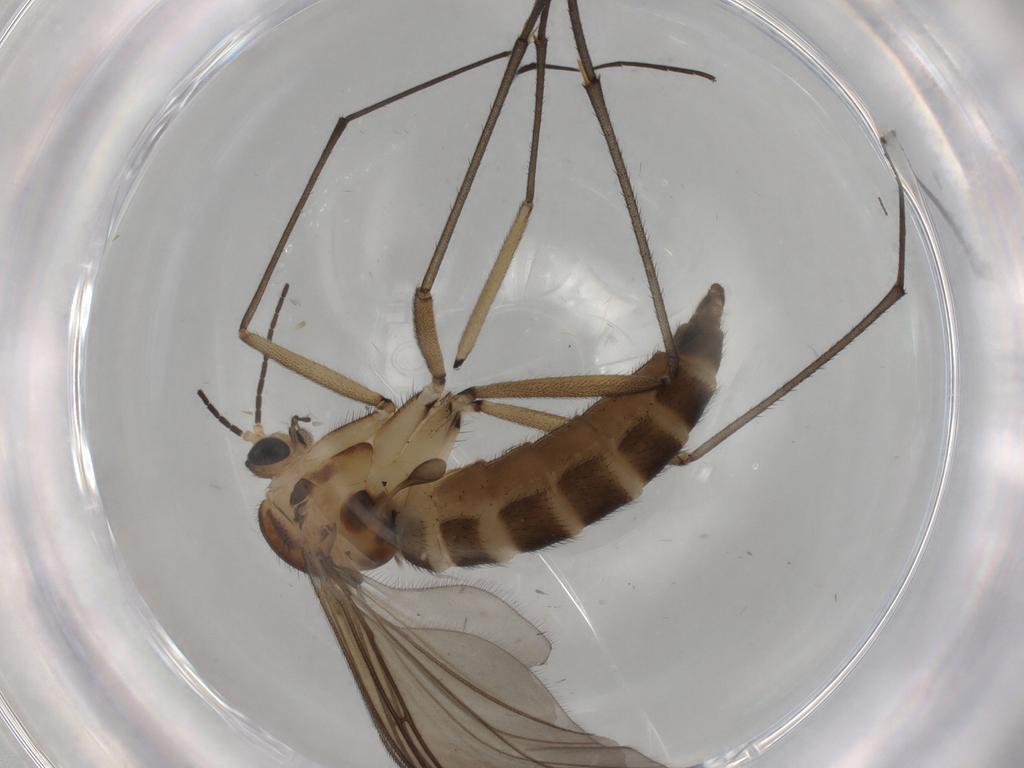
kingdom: Animalia
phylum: Arthropoda
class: Insecta
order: Diptera
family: Sciaridae
